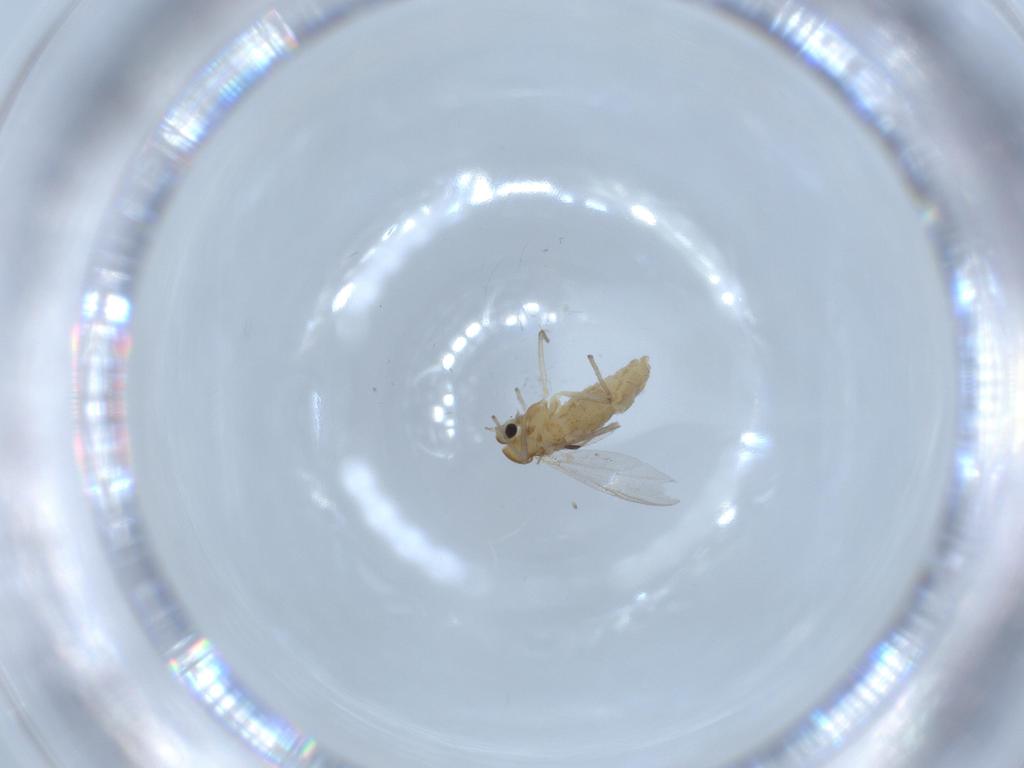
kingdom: Animalia
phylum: Arthropoda
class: Insecta
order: Diptera
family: Chironomidae
